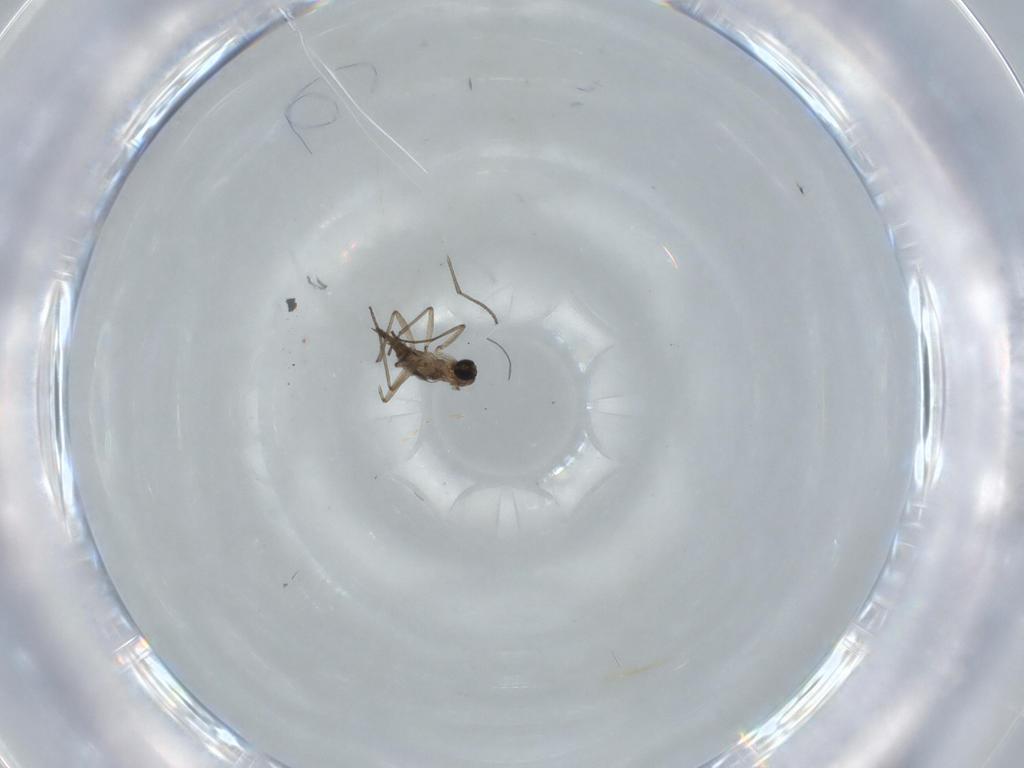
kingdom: Animalia
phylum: Arthropoda
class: Insecta
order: Diptera
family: Sciaridae
